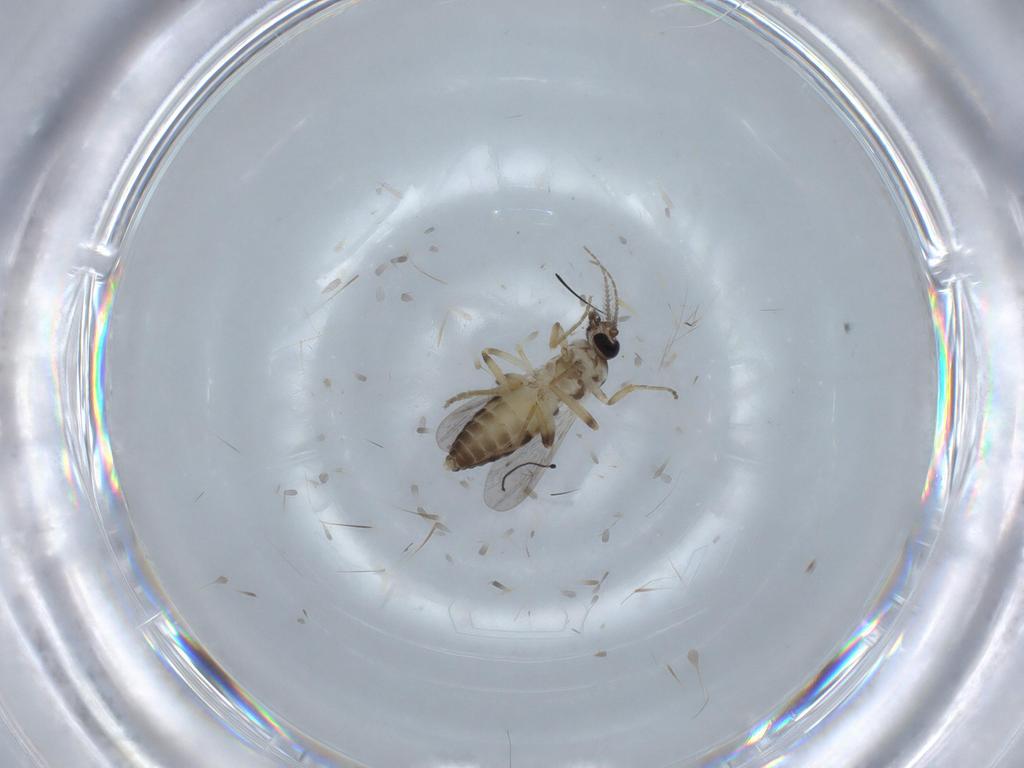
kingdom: Animalia
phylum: Arthropoda
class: Insecta
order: Diptera
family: Ceratopogonidae
